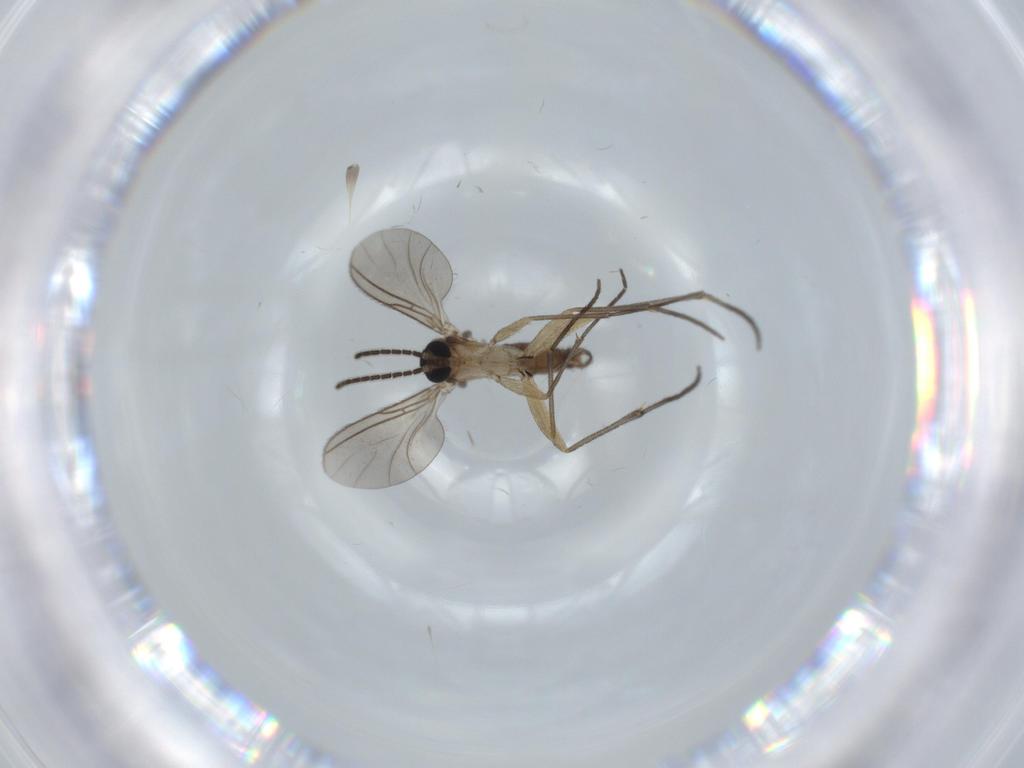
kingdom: Animalia
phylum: Arthropoda
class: Insecta
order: Diptera
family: Sciaridae
